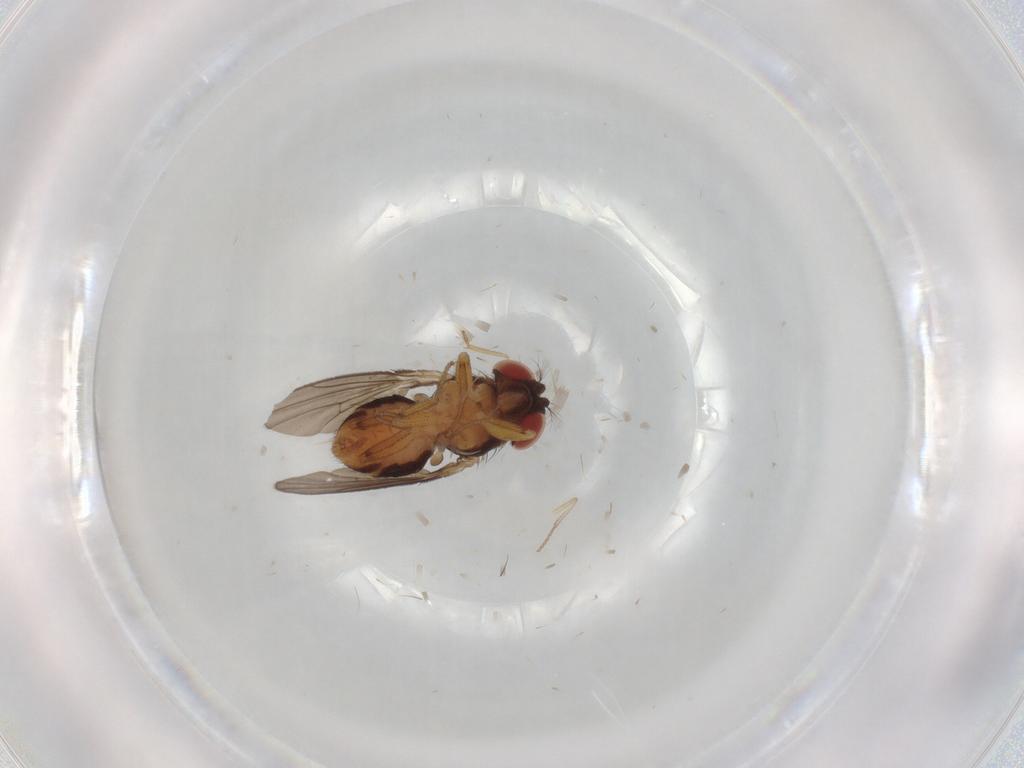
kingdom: Animalia
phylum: Arthropoda
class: Insecta
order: Diptera
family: Drosophilidae
